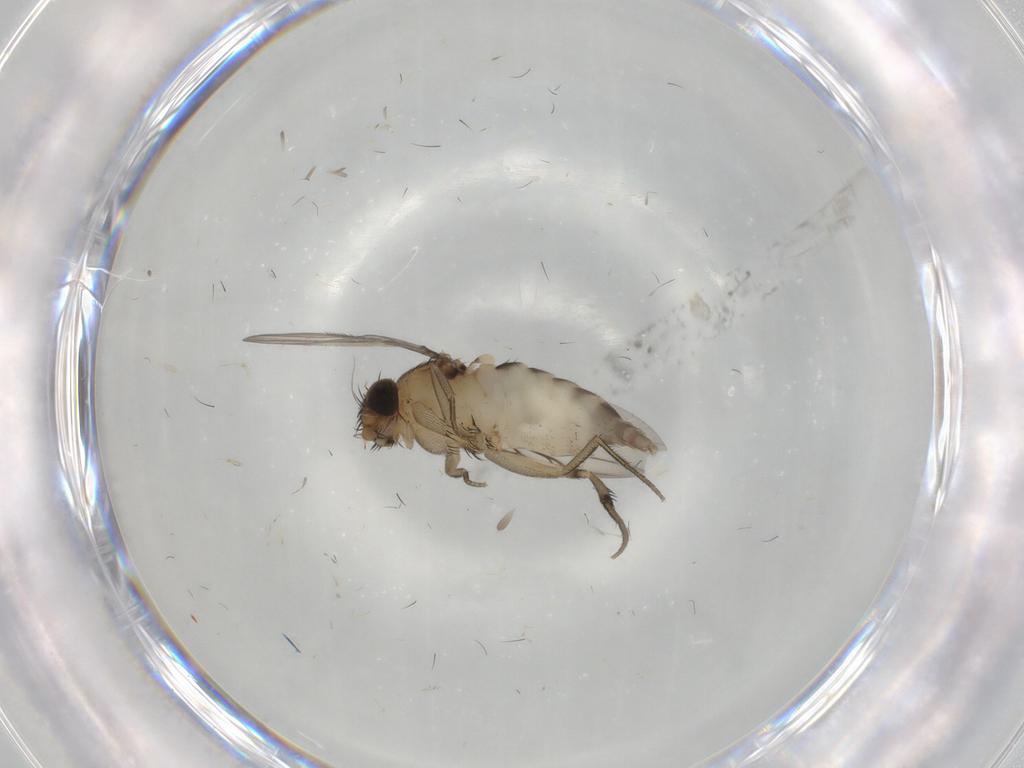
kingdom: Animalia
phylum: Arthropoda
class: Insecta
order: Diptera
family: Phoridae
